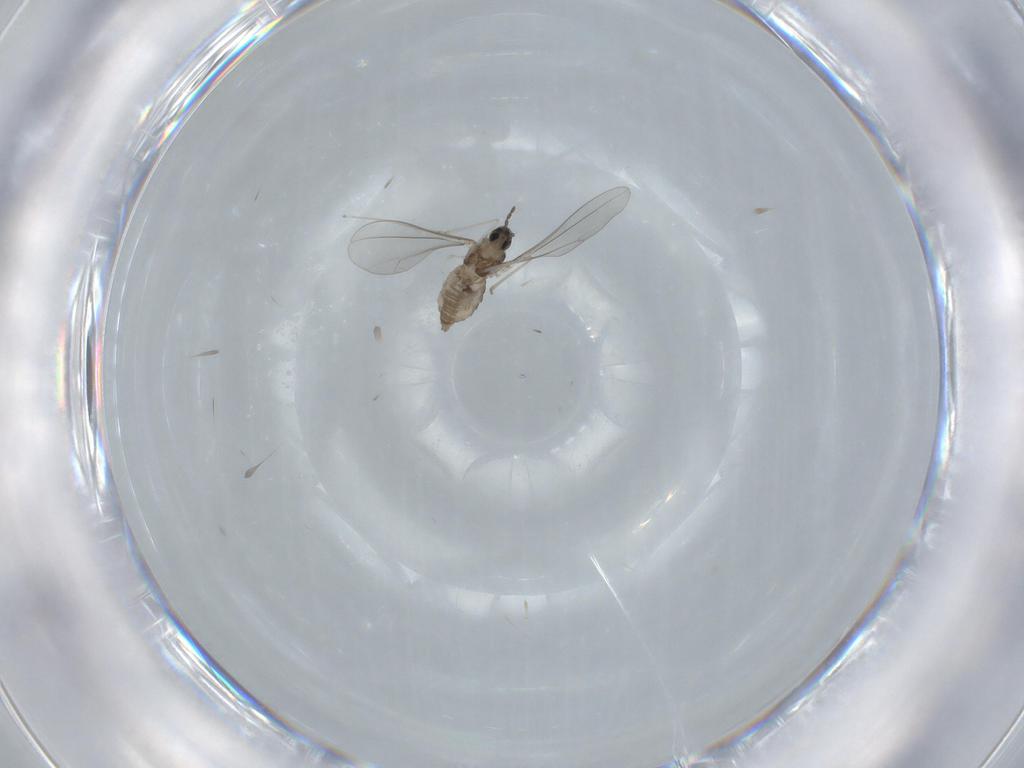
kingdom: Animalia
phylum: Arthropoda
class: Insecta
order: Diptera
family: Cecidomyiidae
